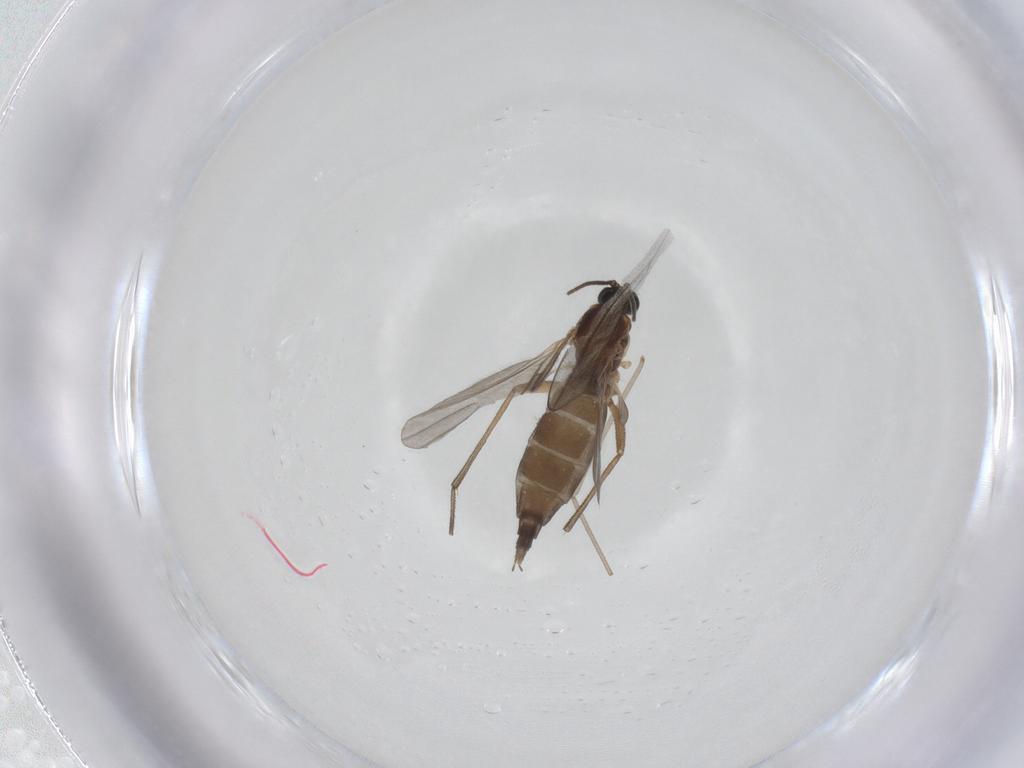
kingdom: Animalia
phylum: Arthropoda
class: Insecta
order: Diptera
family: Sciaridae
